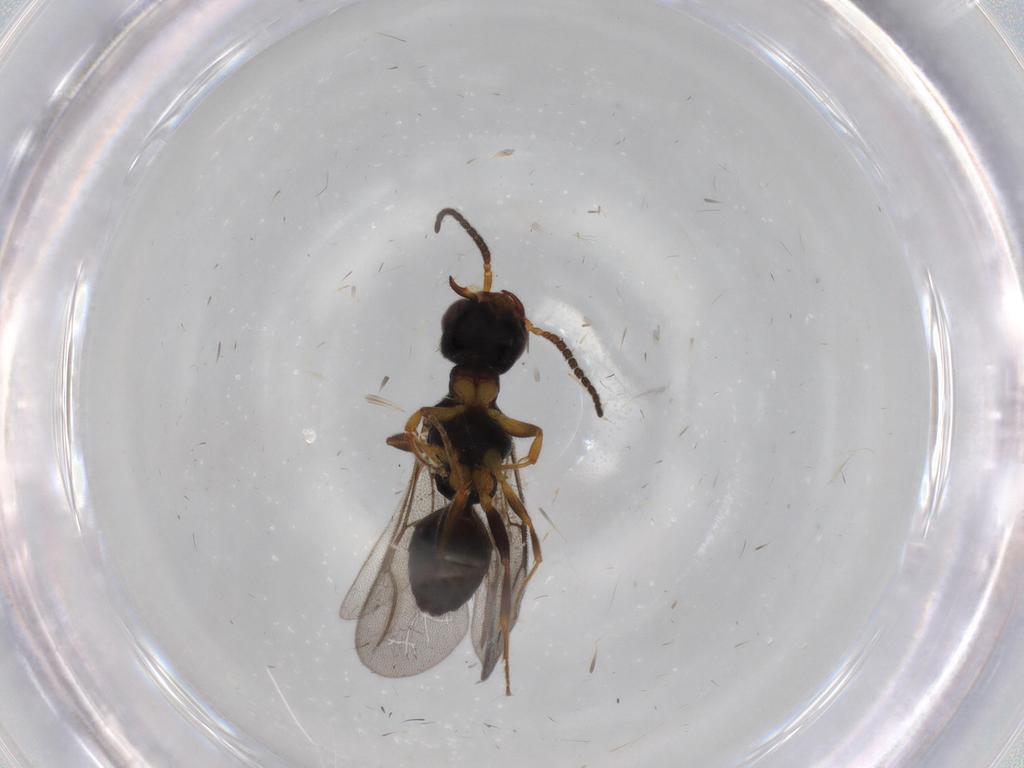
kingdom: Animalia
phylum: Arthropoda
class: Insecta
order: Hymenoptera
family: Bethylidae
